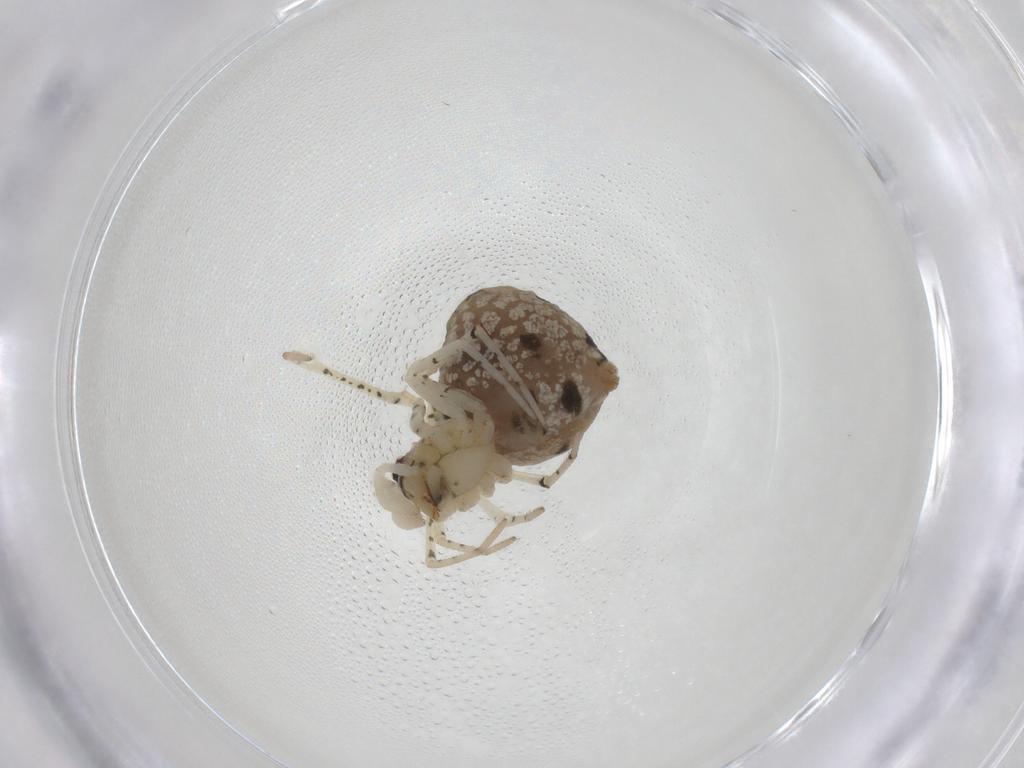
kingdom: Animalia
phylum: Arthropoda
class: Arachnida
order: Araneae
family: Theridiidae
